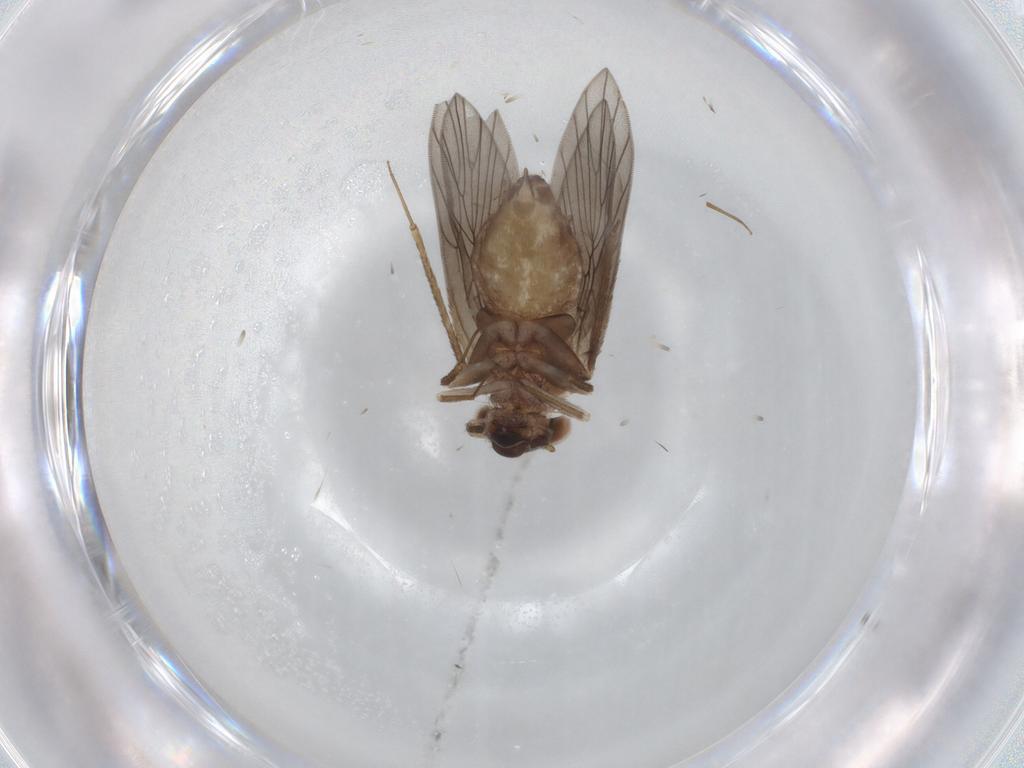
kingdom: Animalia
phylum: Arthropoda
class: Insecta
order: Psocodea
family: Lepidopsocidae
